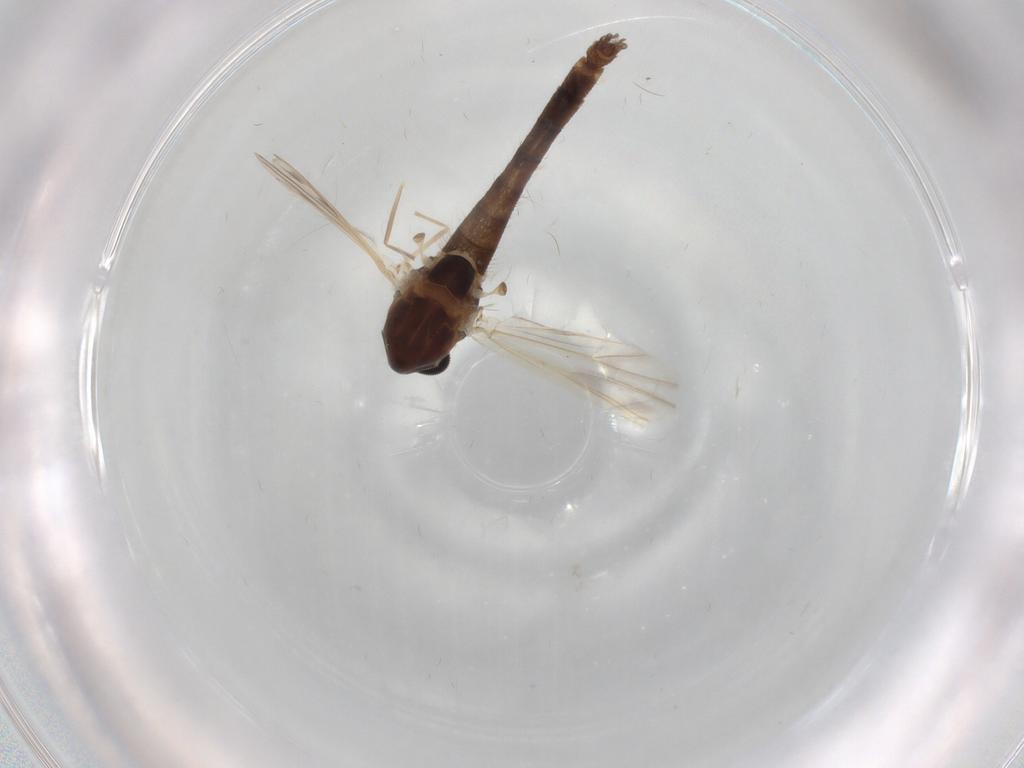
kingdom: Animalia
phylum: Arthropoda
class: Insecta
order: Diptera
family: Chironomidae
